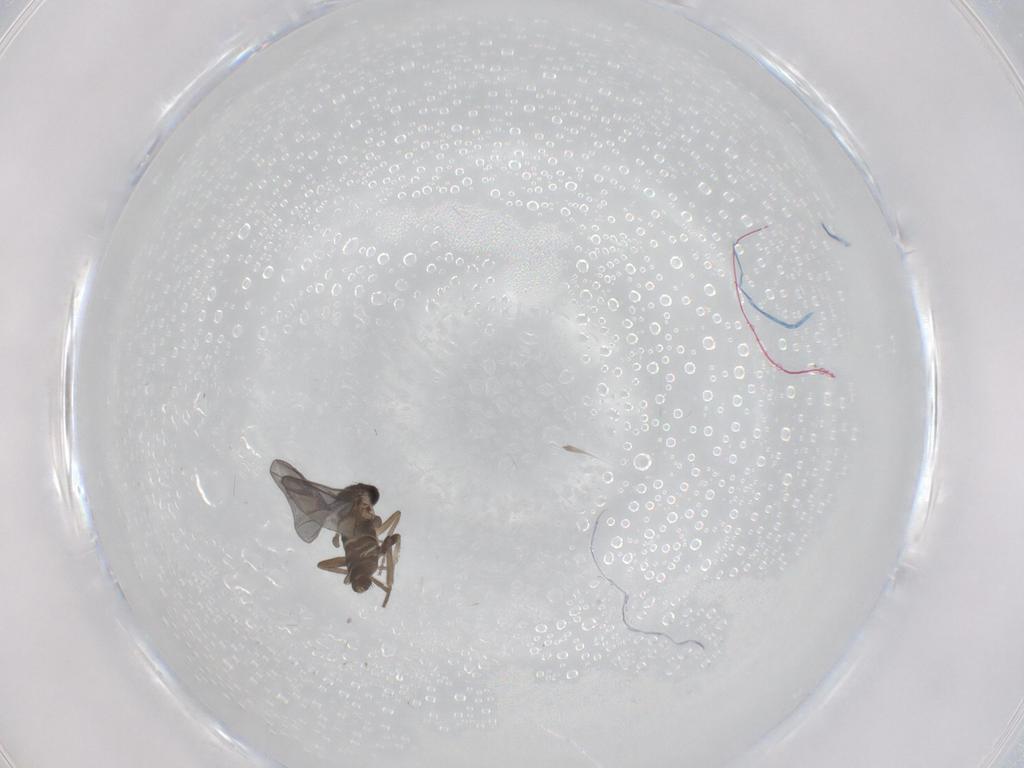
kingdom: Animalia
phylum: Arthropoda
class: Insecta
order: Diptera
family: Phoridae
